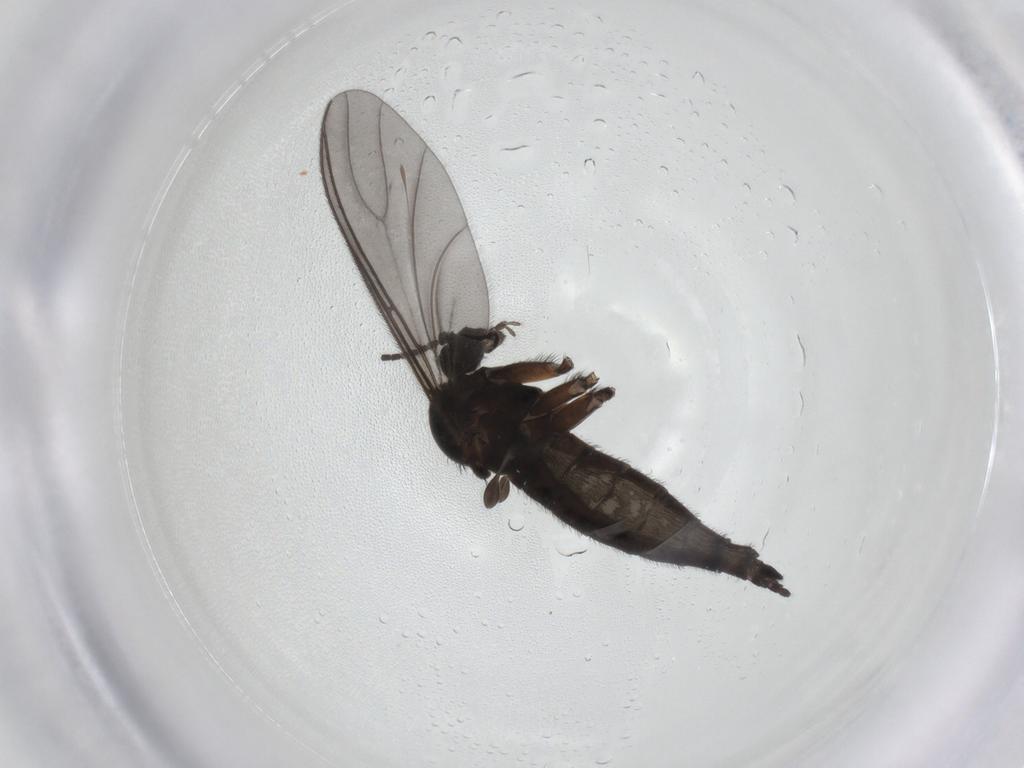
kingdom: Animalia
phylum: Arthropoda
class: Insecta
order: Diptera
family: Sciaridae
